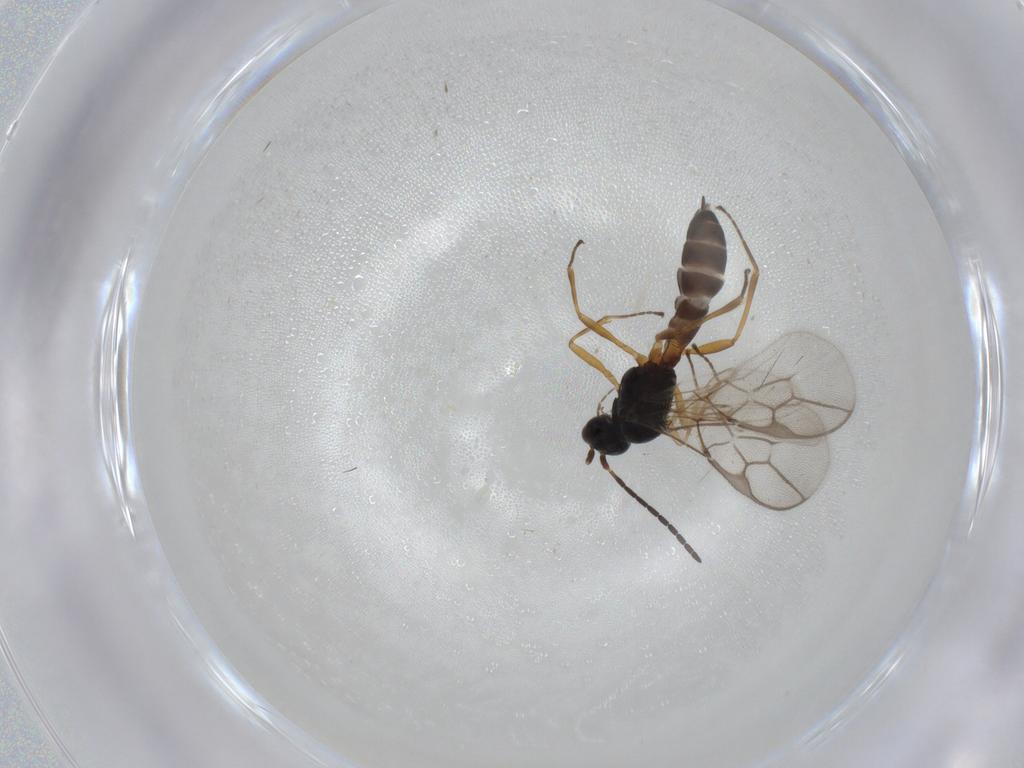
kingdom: Animalia
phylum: Arthropoda
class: Insecta
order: Hymenoptera
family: Braconidae
